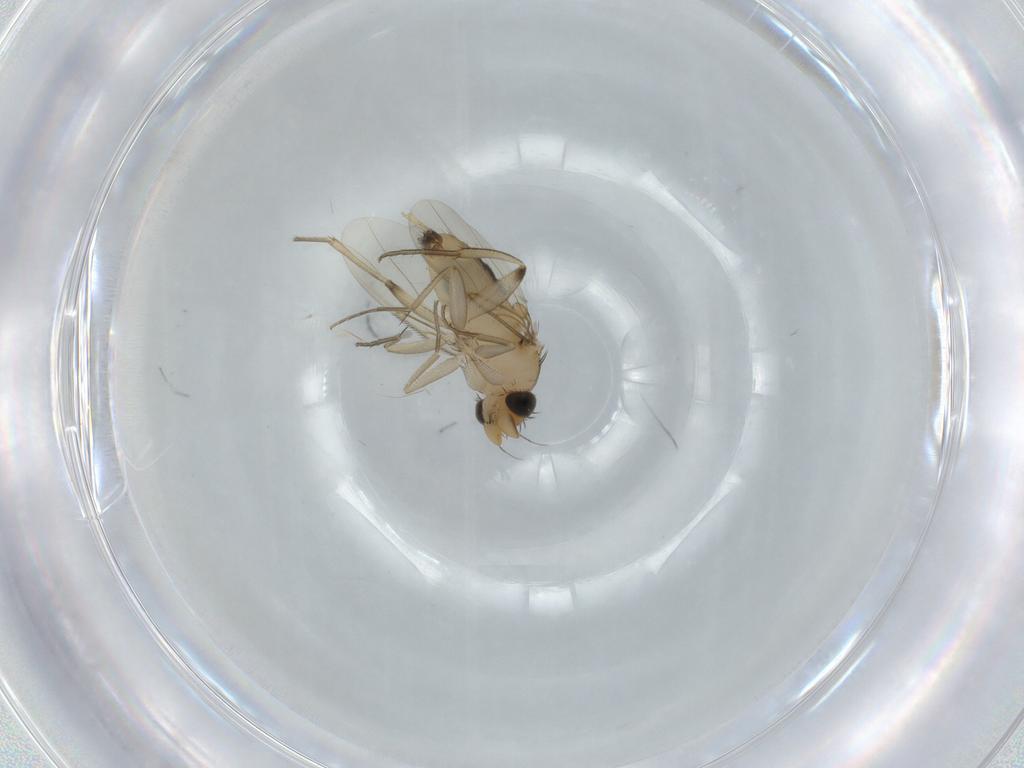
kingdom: Animalia
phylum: Arthropoda
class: Insecta
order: Diptera
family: Phoridae
